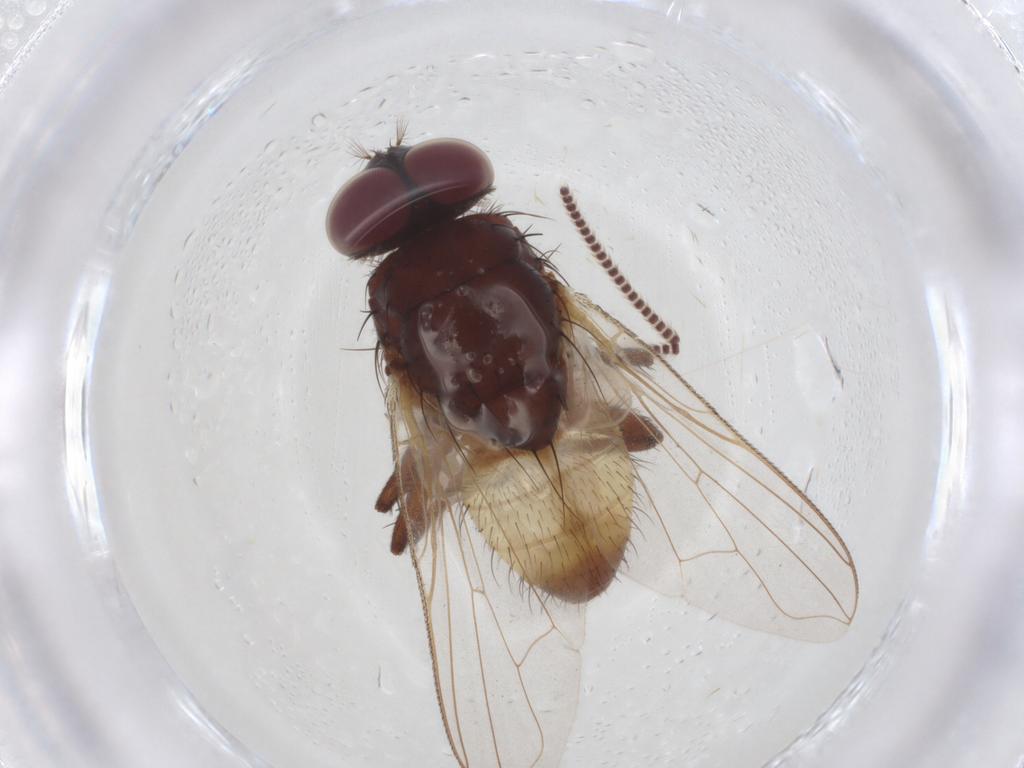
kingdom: Animalia
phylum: Arthropoda
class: Insecta
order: Diptera
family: Muscidae
